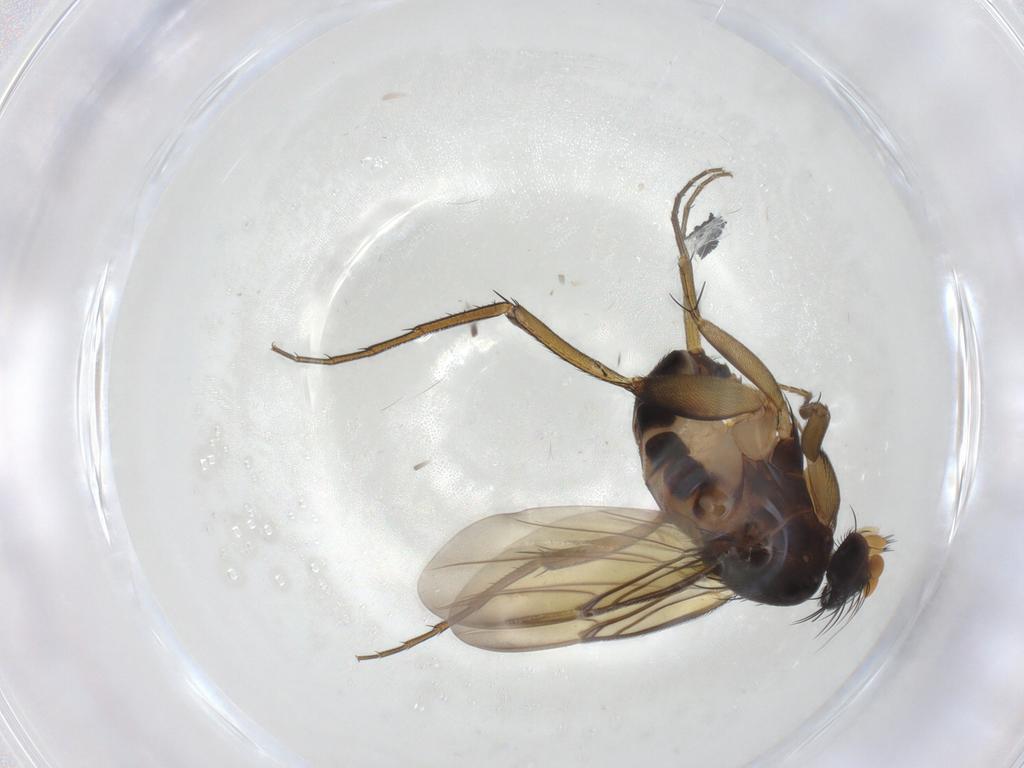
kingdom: Animalia
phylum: Arthropoda
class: Insecta
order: Diptera
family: Phoridae
